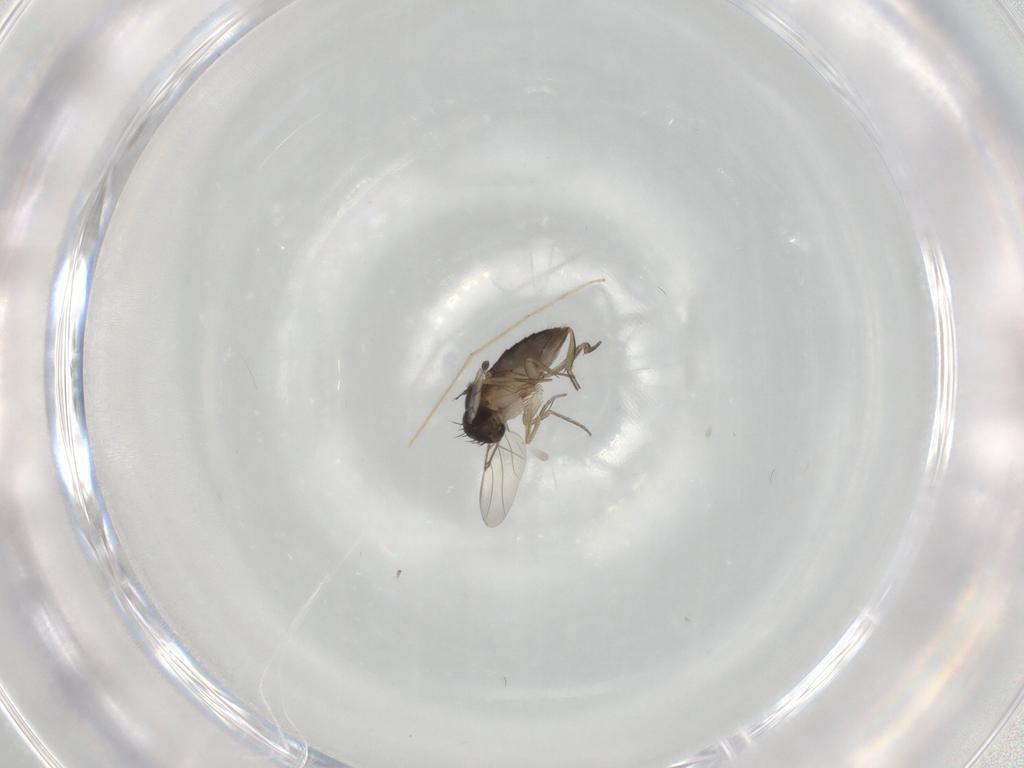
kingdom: Animalia
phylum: Arthropoda
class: Insecta
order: Diptera
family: Phoridae
